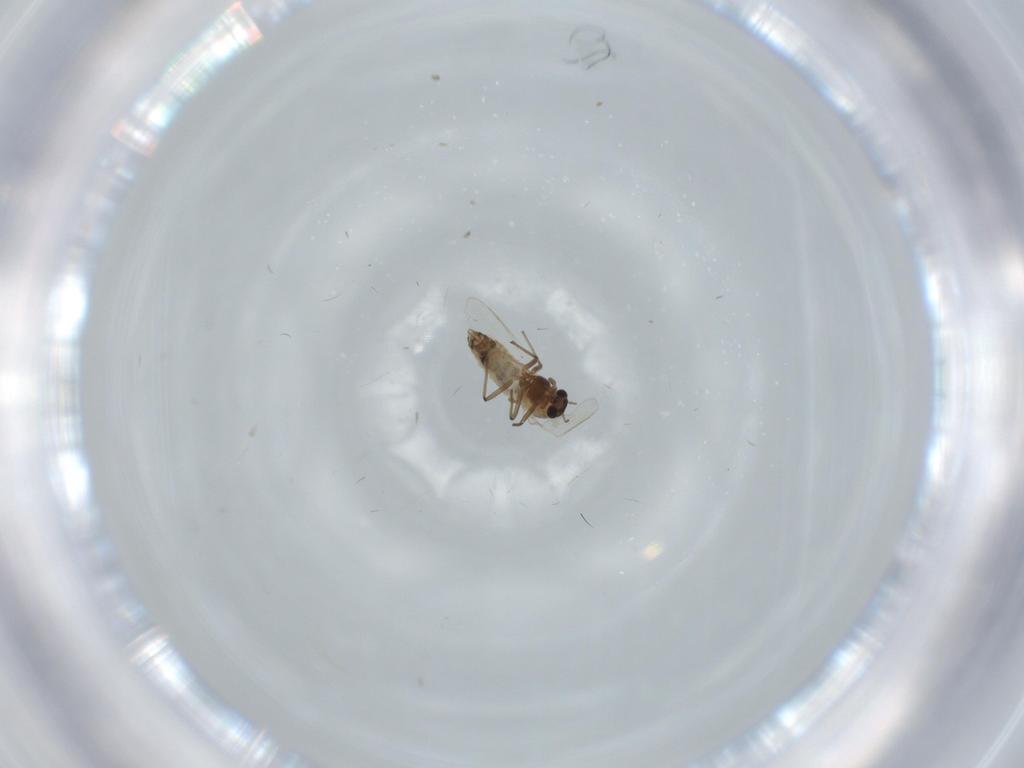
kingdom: Animalia
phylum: Arthropoda
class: Insecta
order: Diptera
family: Chironomidae
